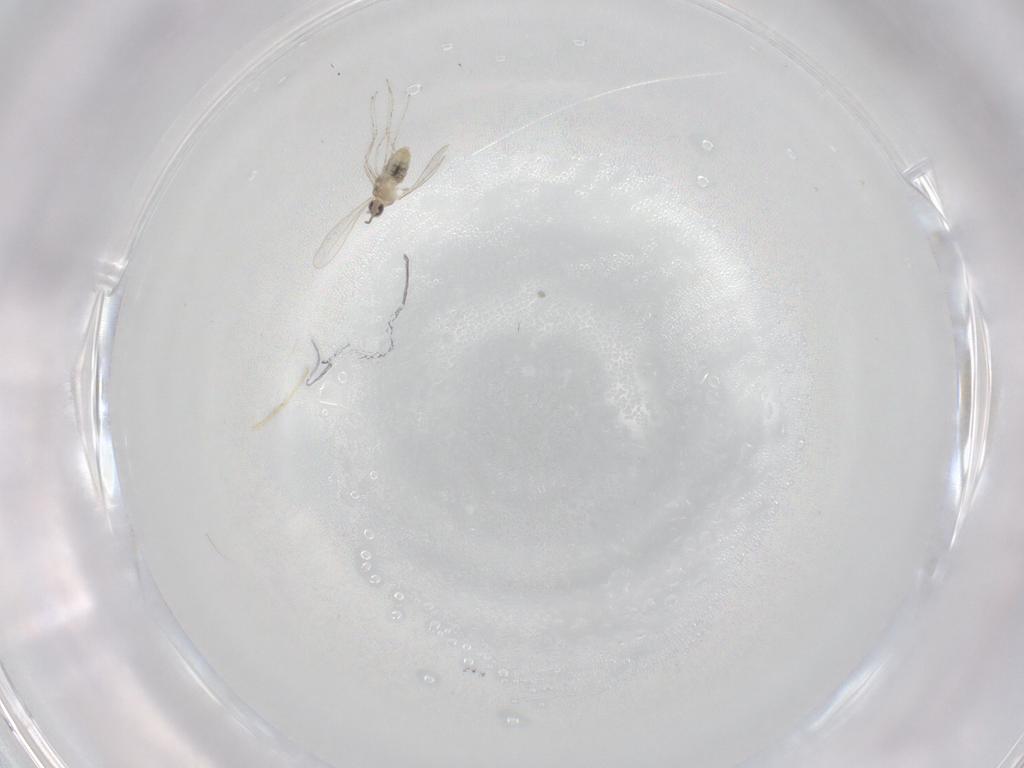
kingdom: Animalia
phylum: Arthropoda
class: Insecta
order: Diptera
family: Cecidomyiidae
